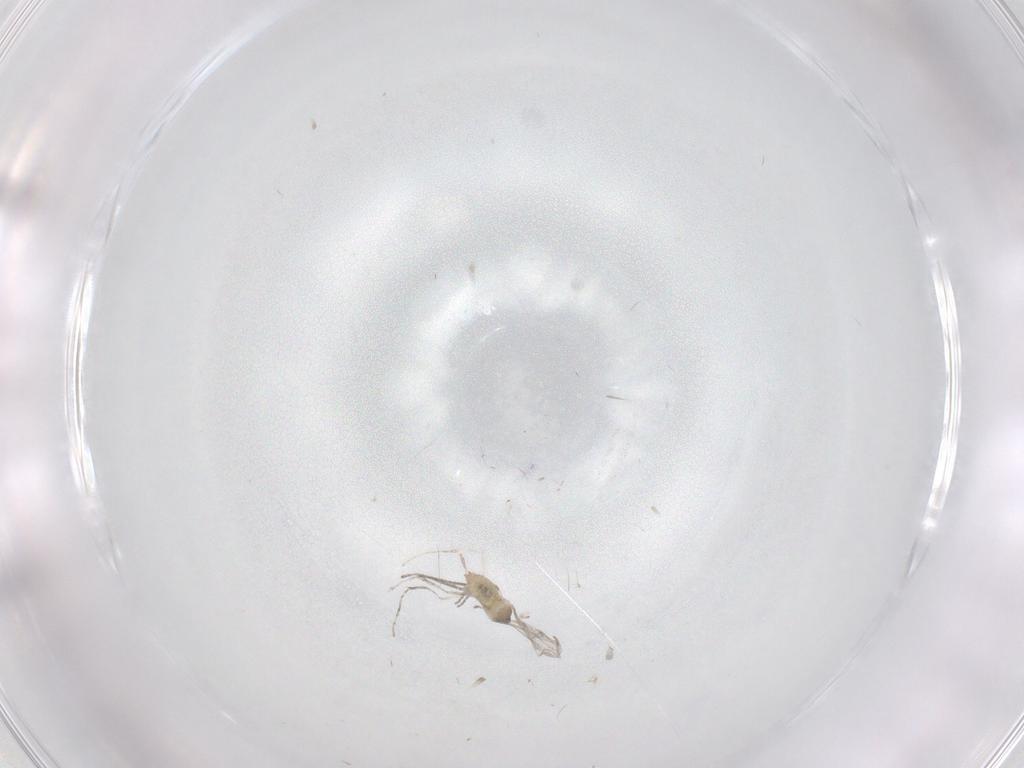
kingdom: Animalia
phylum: Arthropoda
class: Insecta
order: Diptera
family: Cecidomyiidae
